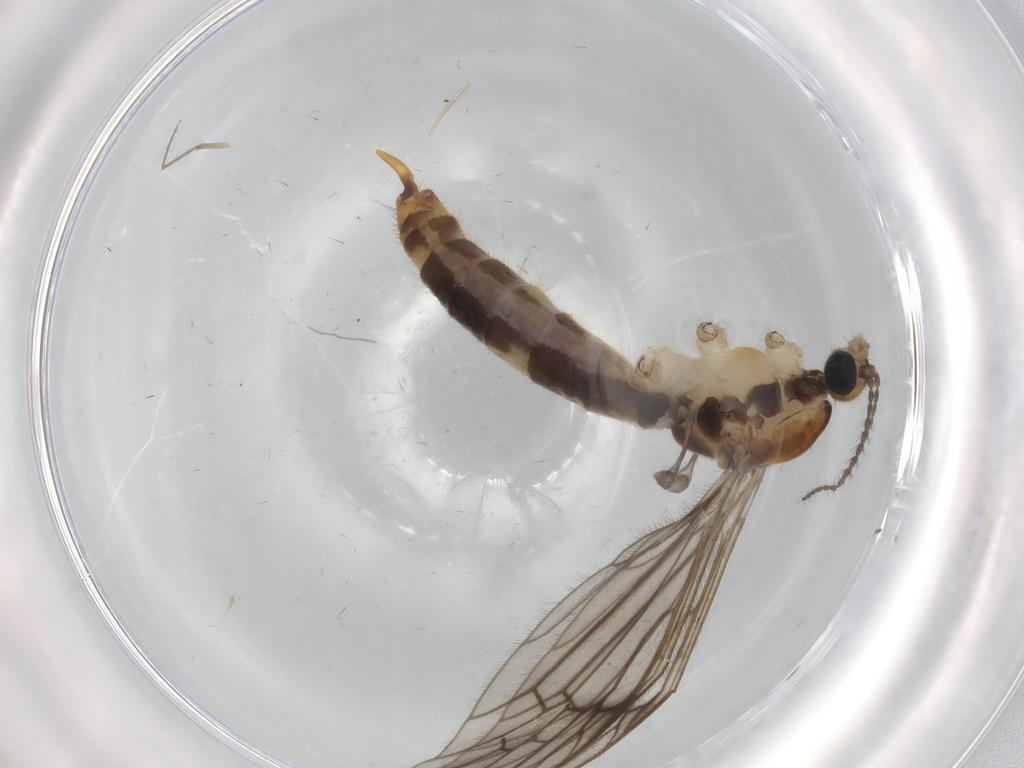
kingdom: Animalia
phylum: Arthropoda
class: Insecta
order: Diptera
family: Limoniidae
